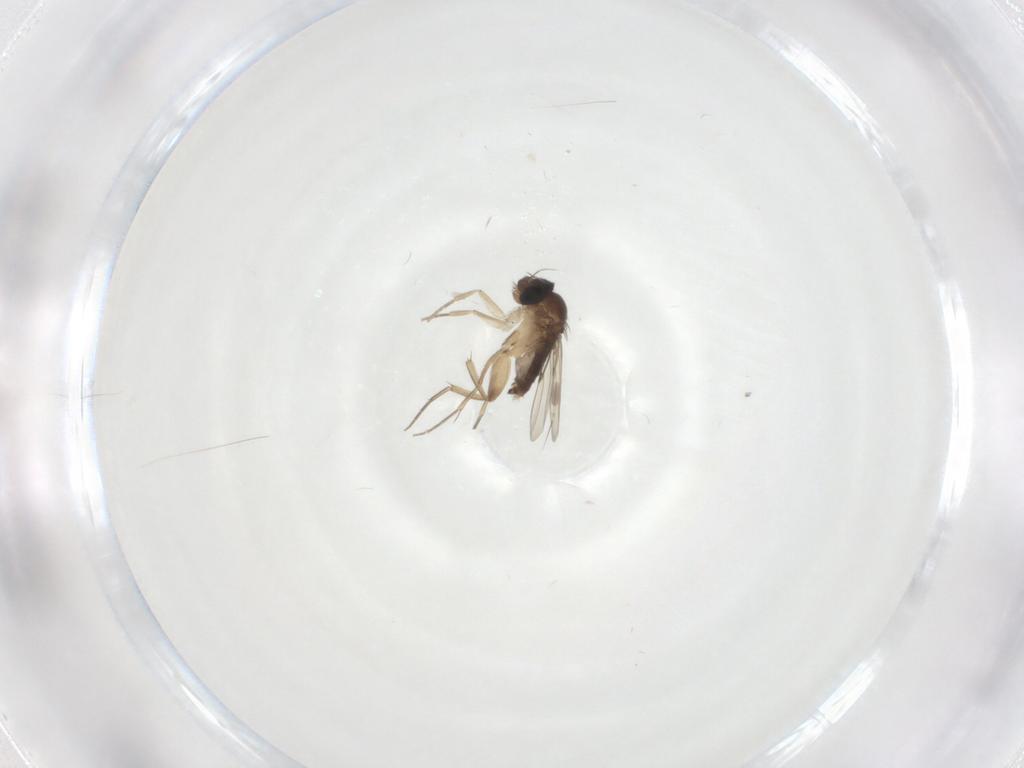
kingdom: Animalia
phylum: Arthropoda
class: Insecta
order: Diptera
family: Phoridae
